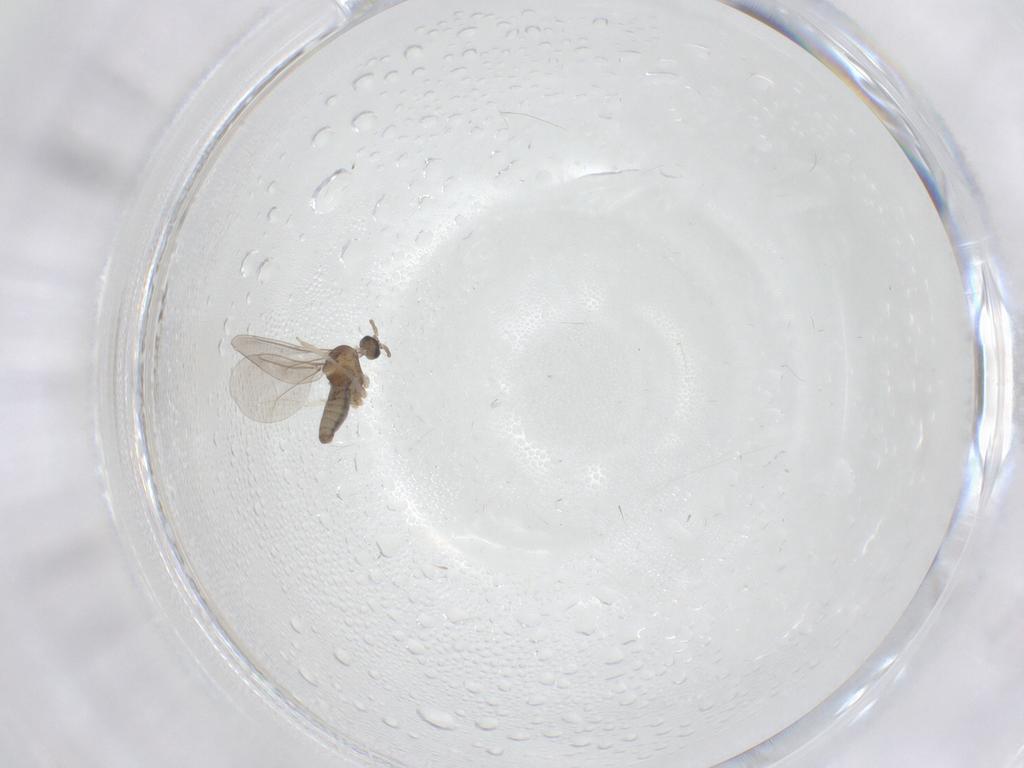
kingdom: Animalia
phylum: Arthropoda
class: Insecta
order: Diptera
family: Cecidomyiidae
